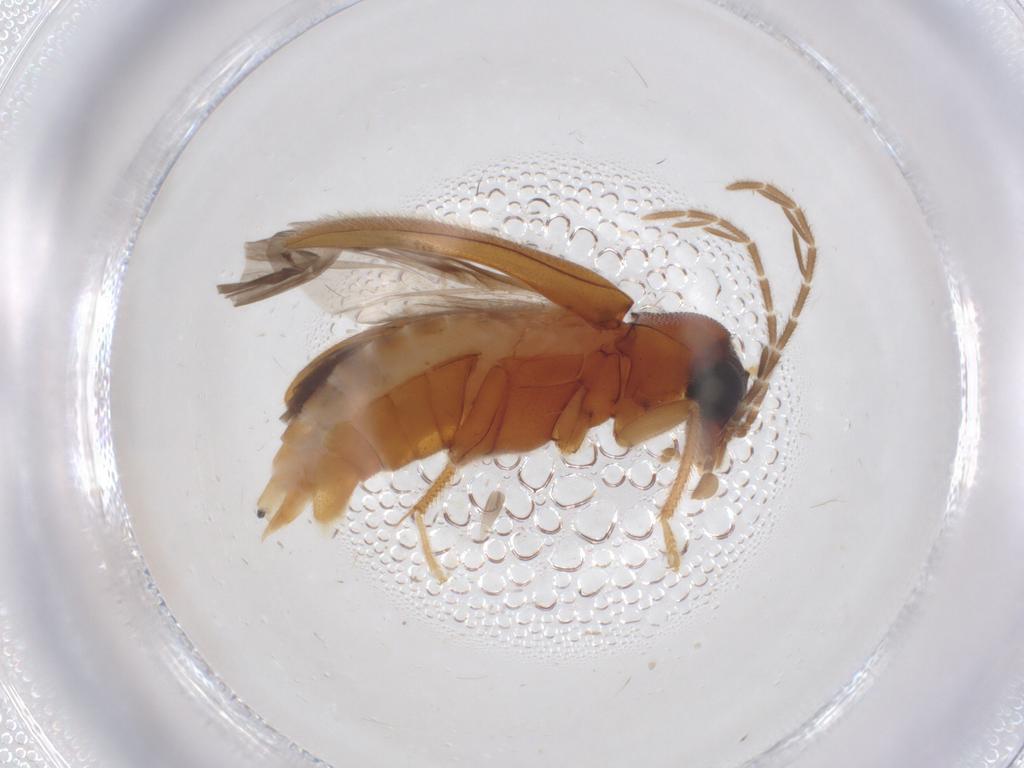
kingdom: Animalia
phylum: Arthropoda
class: Insecta
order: Coleoptera
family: Ptilodactylidae
